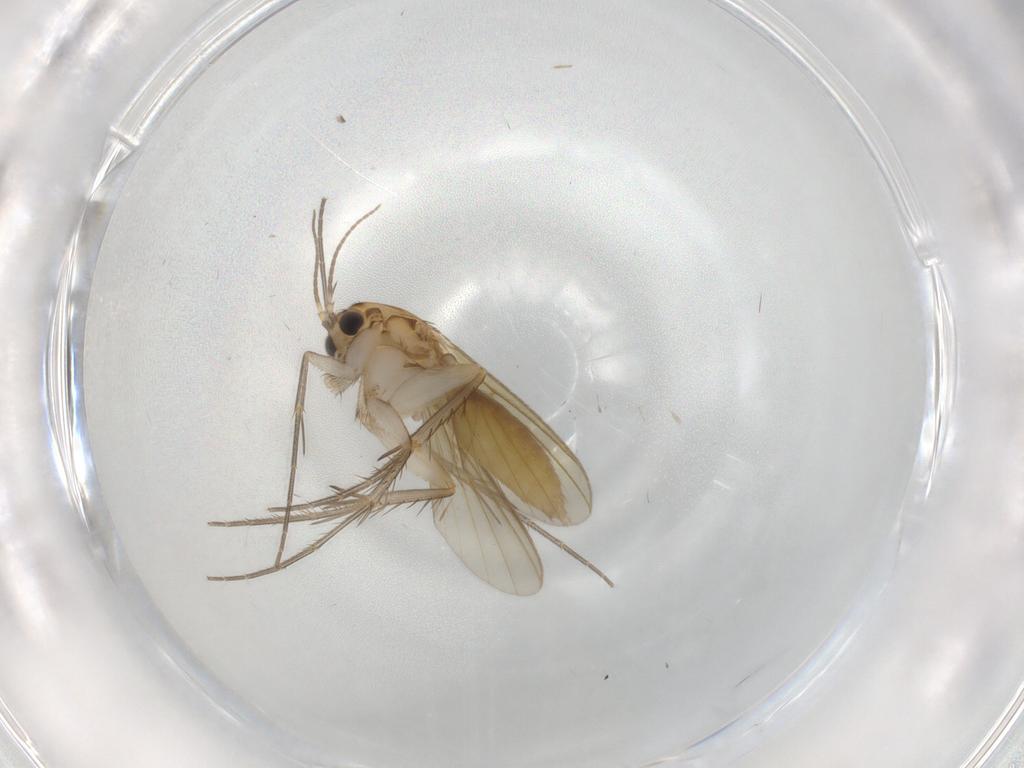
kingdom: Animalia
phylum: Arthropoda
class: Insecta
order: Diptera
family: Mycetophilidae
